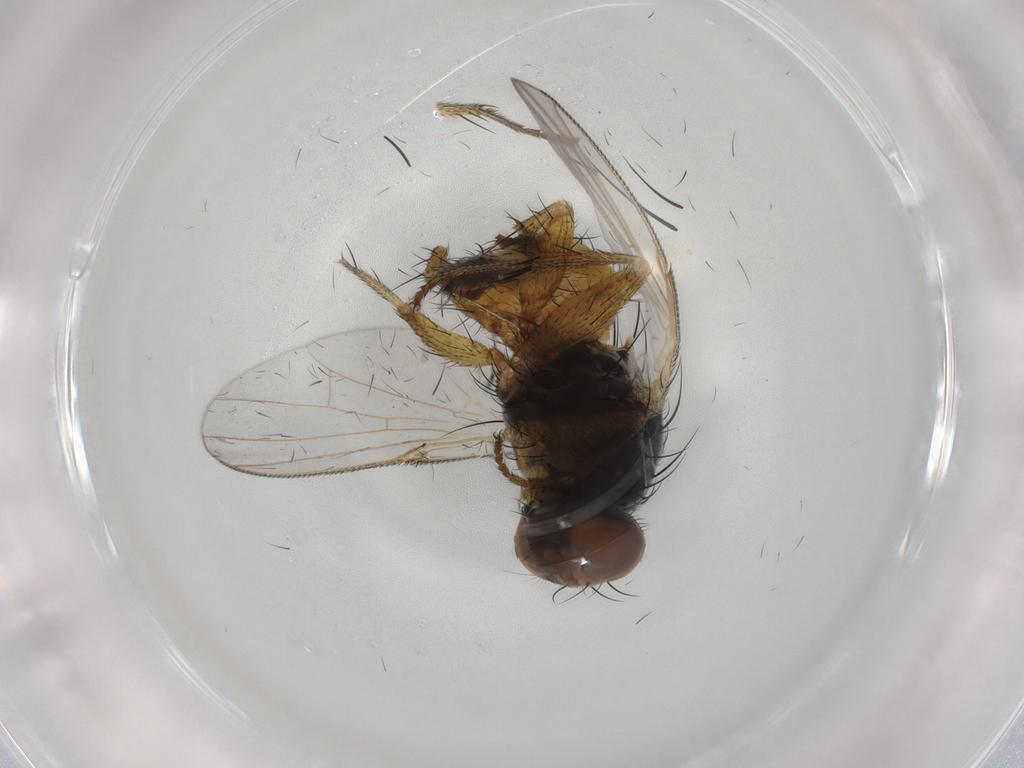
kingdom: Animalia
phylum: Arthropoda
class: Insecta
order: Diptera
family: Muscidae
